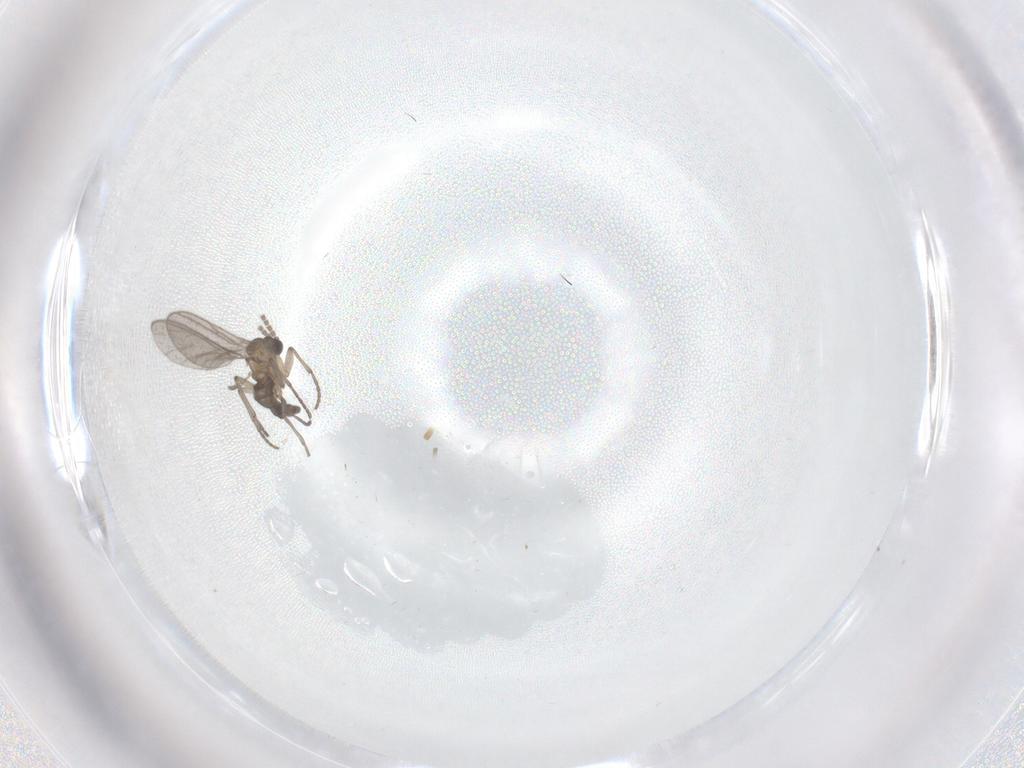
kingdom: Animalia
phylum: Arthropoda
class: Insecta
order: Diptera
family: Sciaridae
